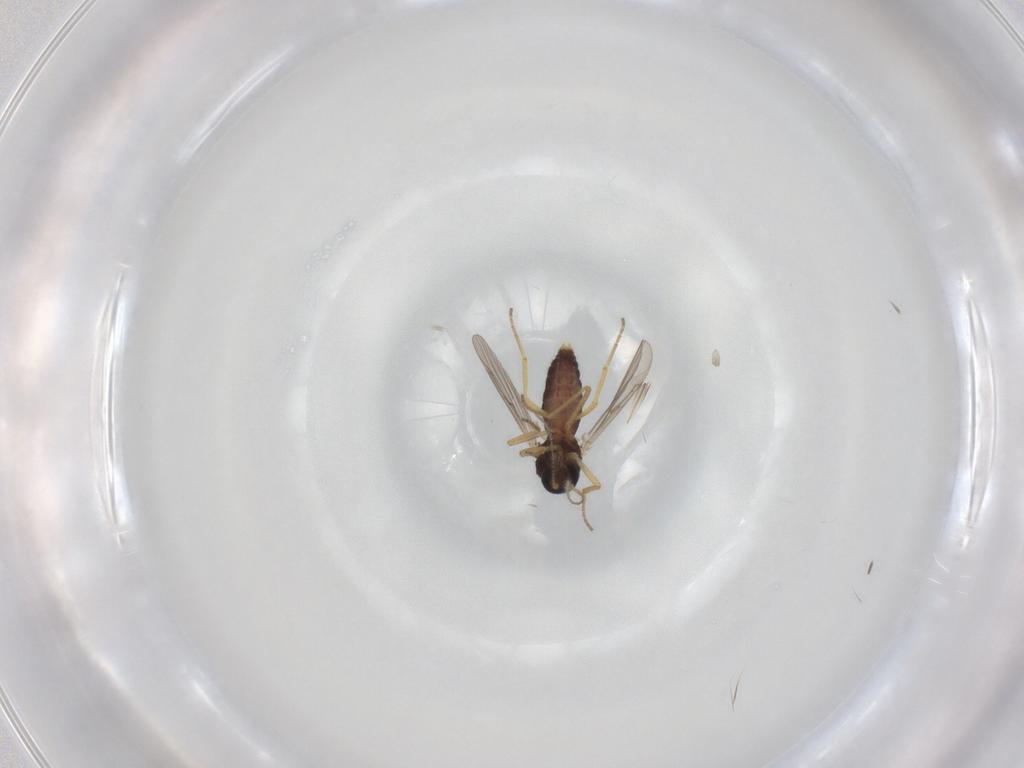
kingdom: Animalia
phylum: Arthropoda
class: Insecta
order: Diptera
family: Ceratopogonidae
